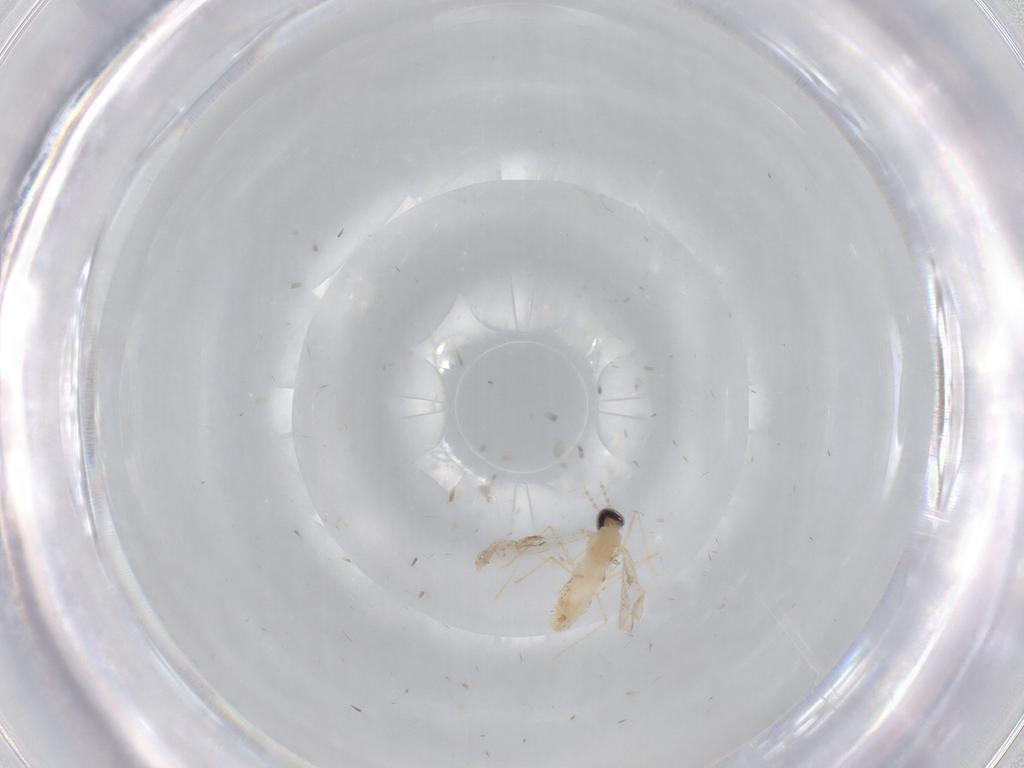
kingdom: Animalia
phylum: Arthropoda
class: Insecta
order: Diptera
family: Cecidomyiidae
